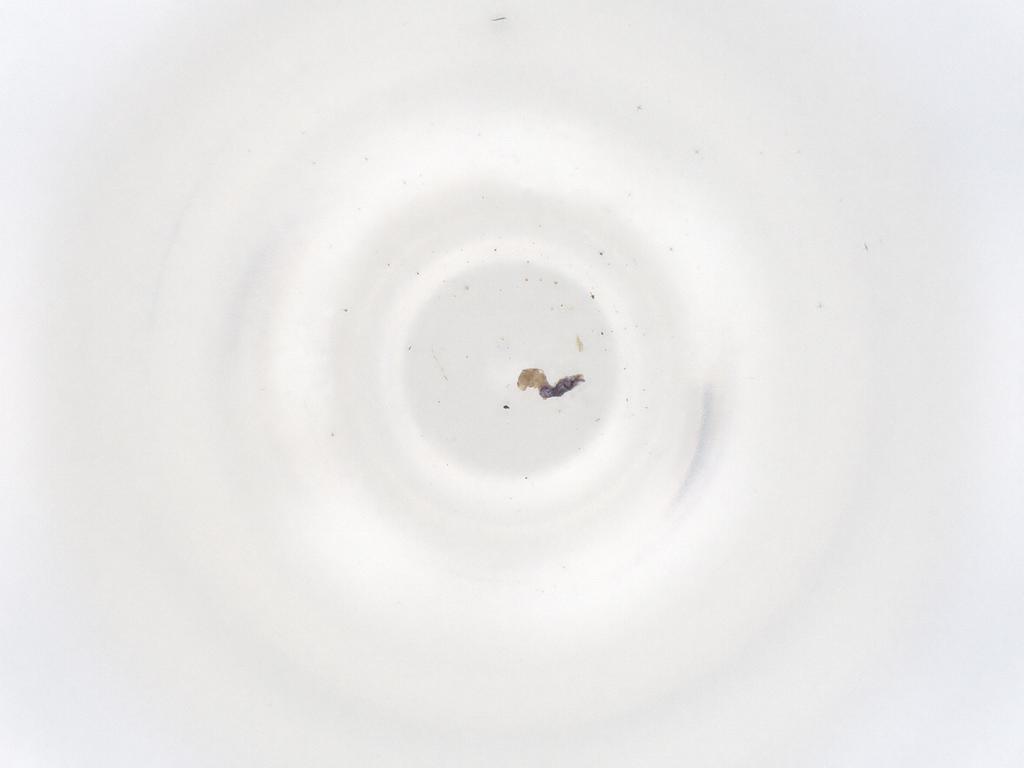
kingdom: Animalia
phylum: Arthropoda
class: Collembola
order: Entomobryomorpha
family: Isotomidae
